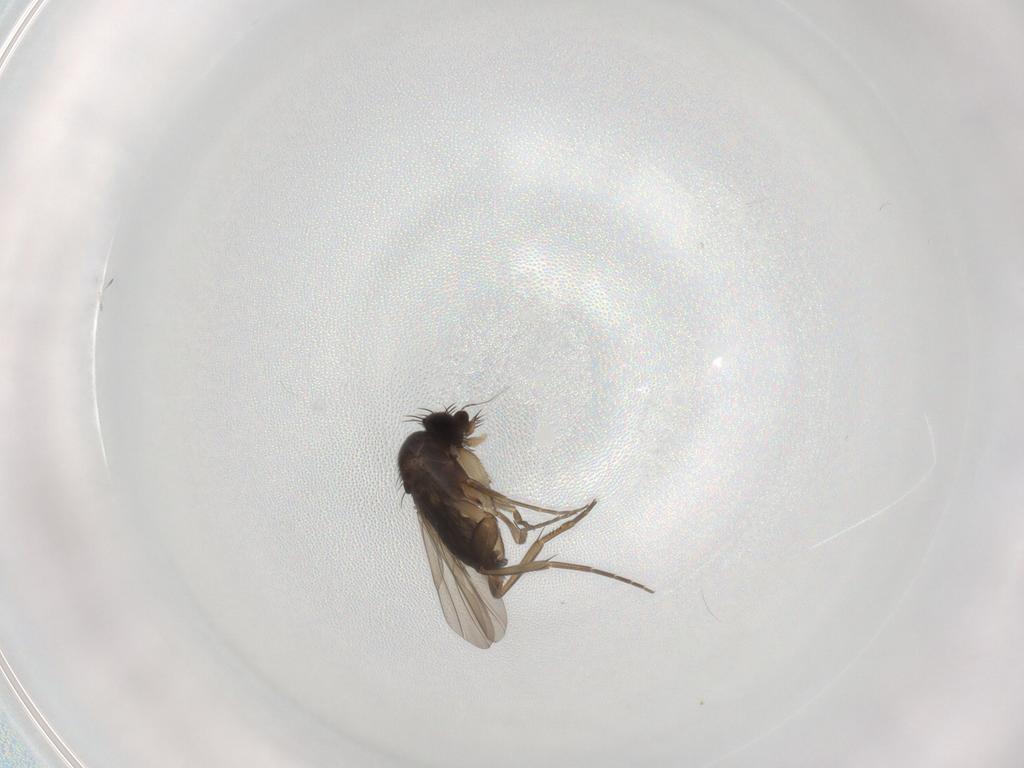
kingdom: Animalia
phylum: Arthropoda
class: Insecta
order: Diptera
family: Phoridae
